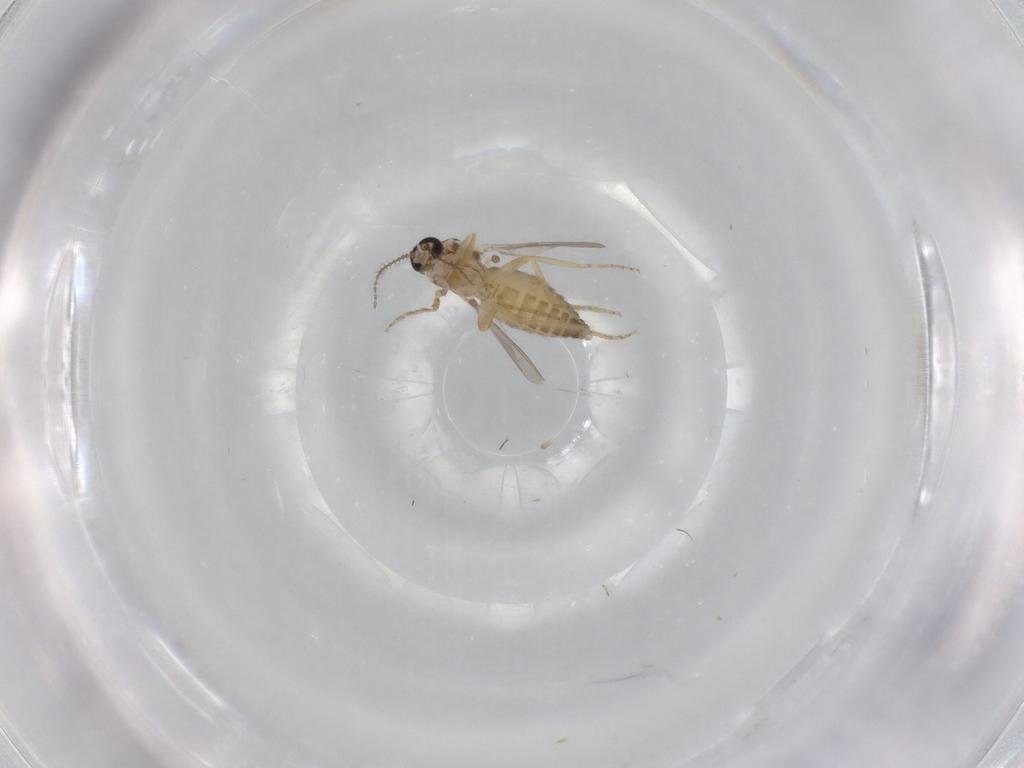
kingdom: Animalia
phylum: Arthropoda
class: Insecta
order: Diptera
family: Ceratopogonidae
